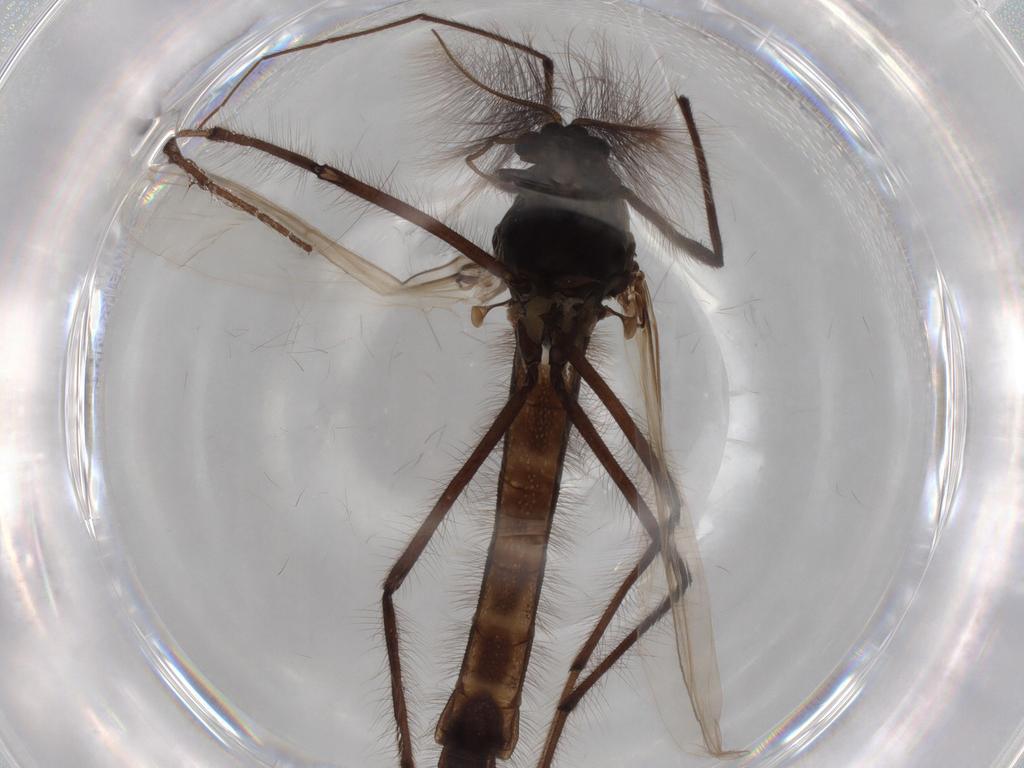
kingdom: Animalia
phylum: Arthropoda
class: Insecta
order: Diptera
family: Chironomidae
